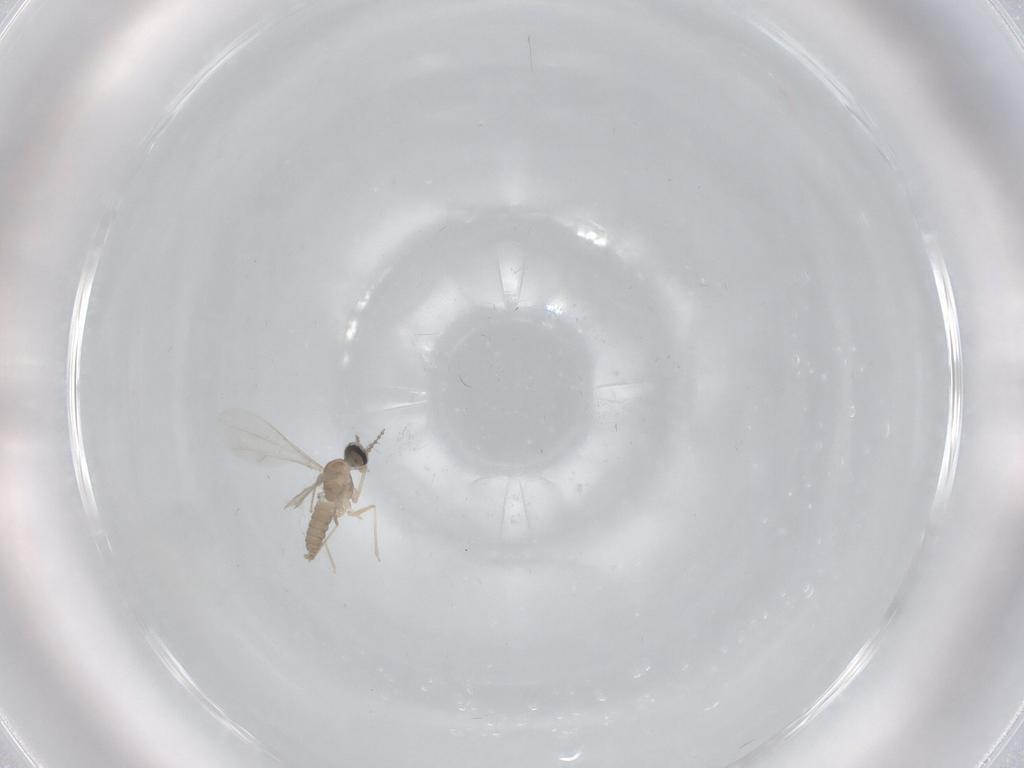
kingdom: Animalia
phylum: Arthropoda
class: Insecta
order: Diptera
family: Cecidomyiidae
